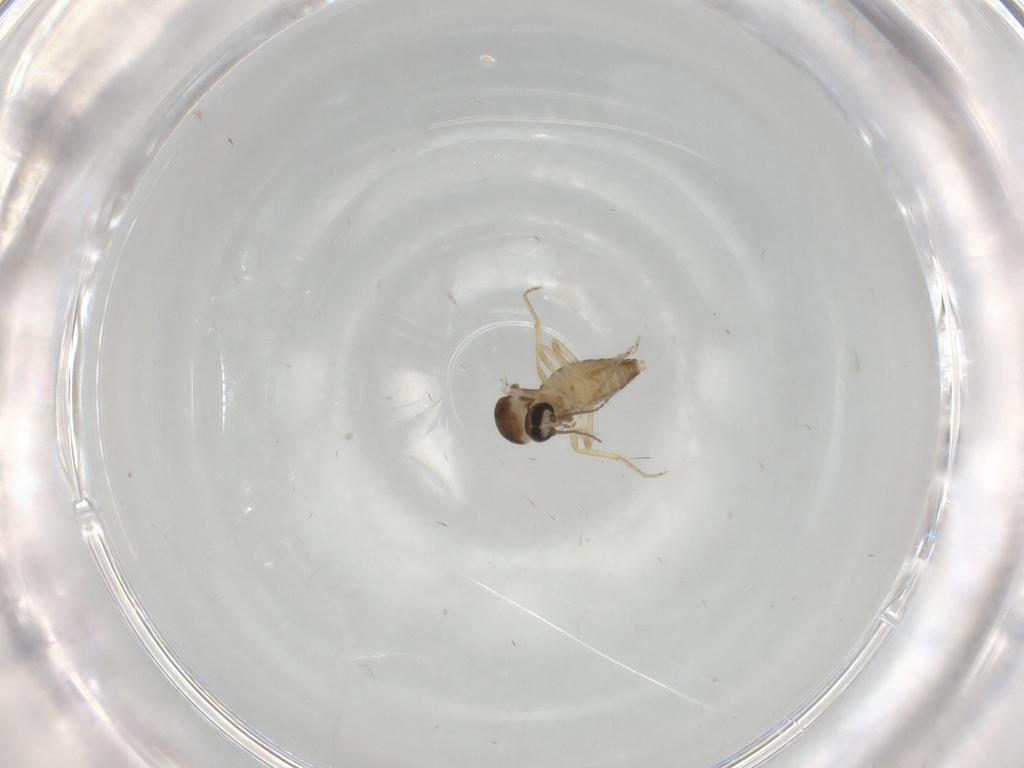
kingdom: Animalia
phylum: Arthropoda
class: Insecta
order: Diptera
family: Ceratopogonidae
